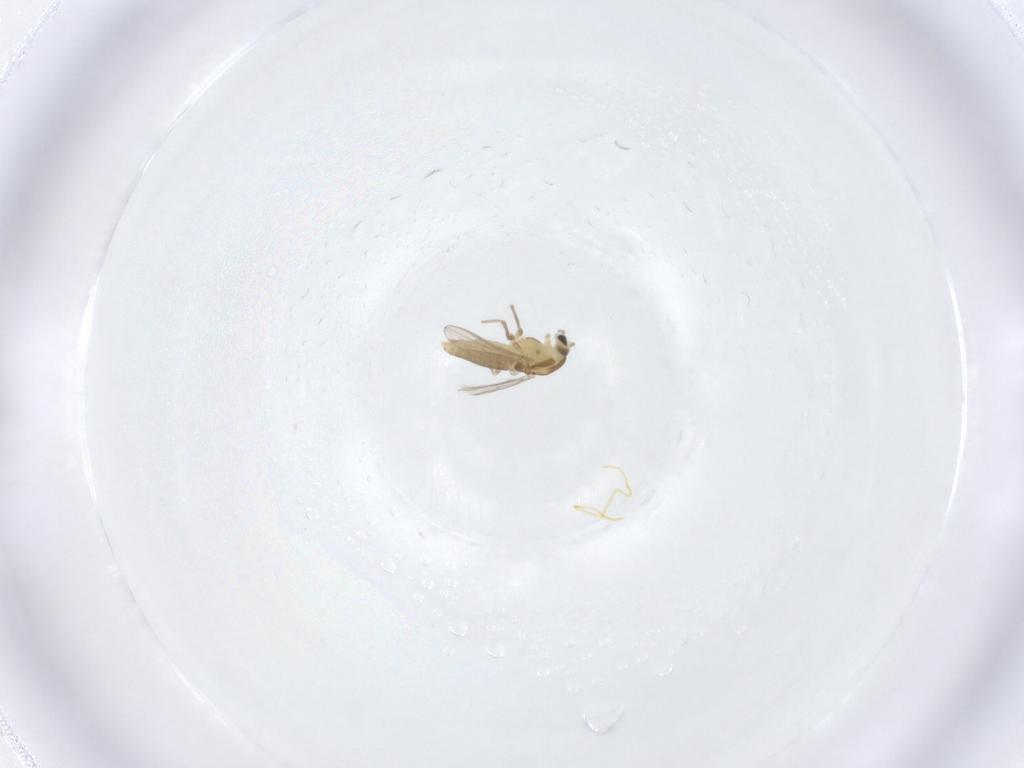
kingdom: Animalia
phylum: Arthropoda
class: Insecta
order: Diptera
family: Chironomidae
